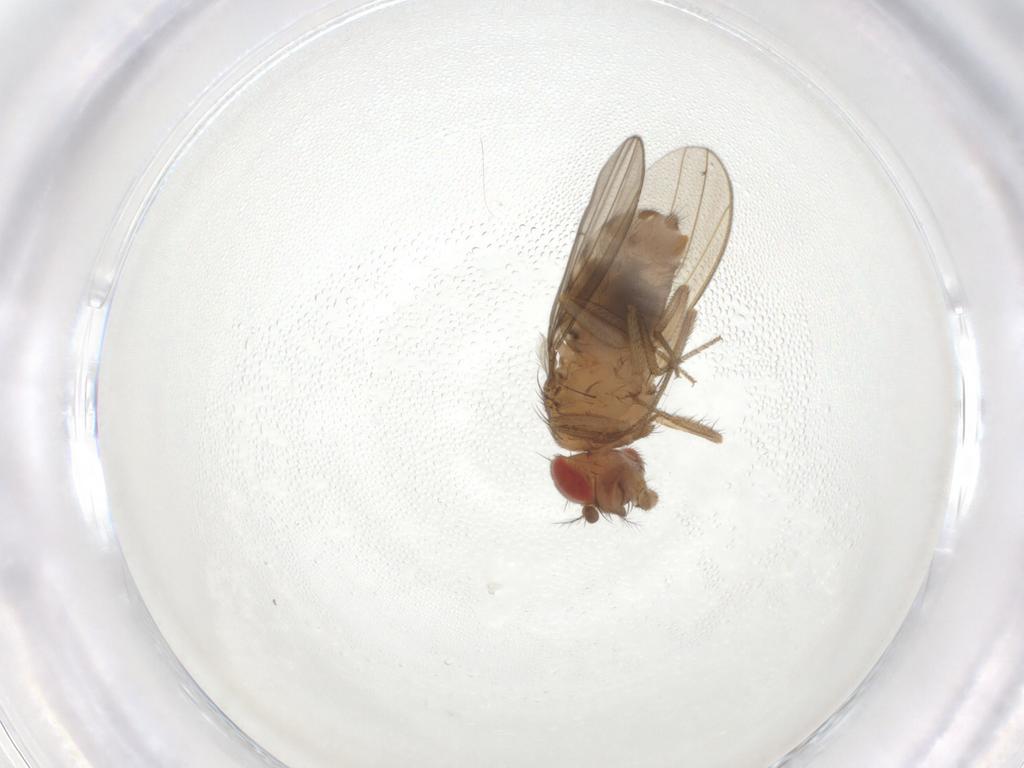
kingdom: Animalia
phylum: Arthropoda
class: Insecta
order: Diptera
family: Drosophilidae
